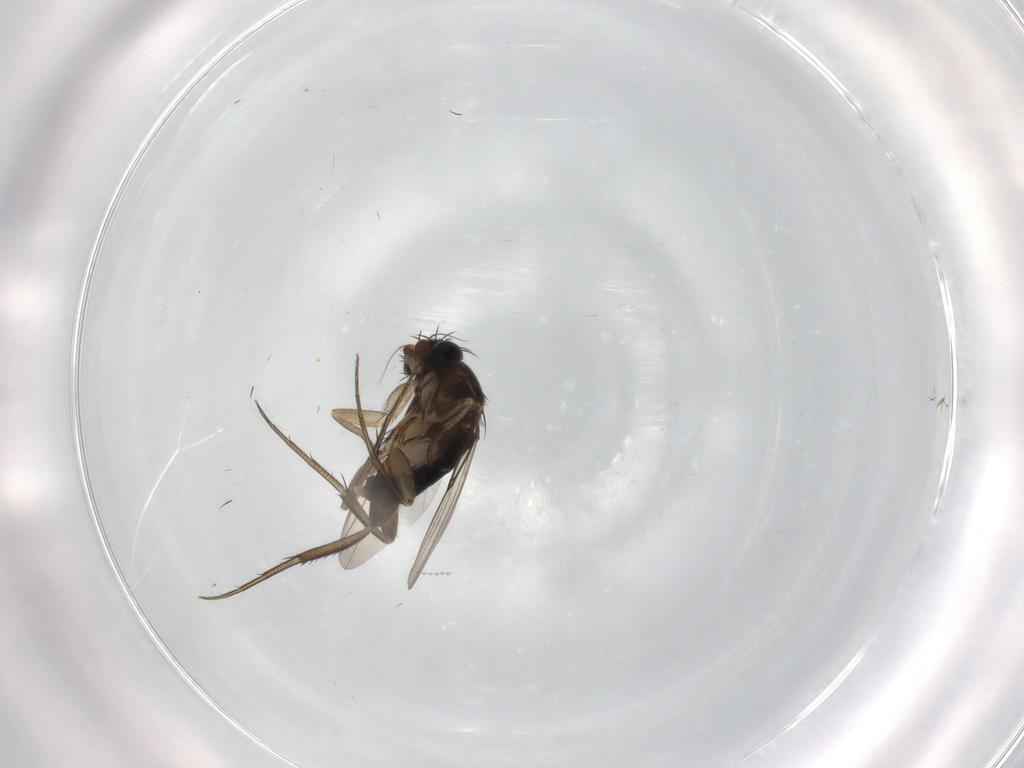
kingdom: Animalia
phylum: Arthropoda
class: Insecta
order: Diptera
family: Phoridae
